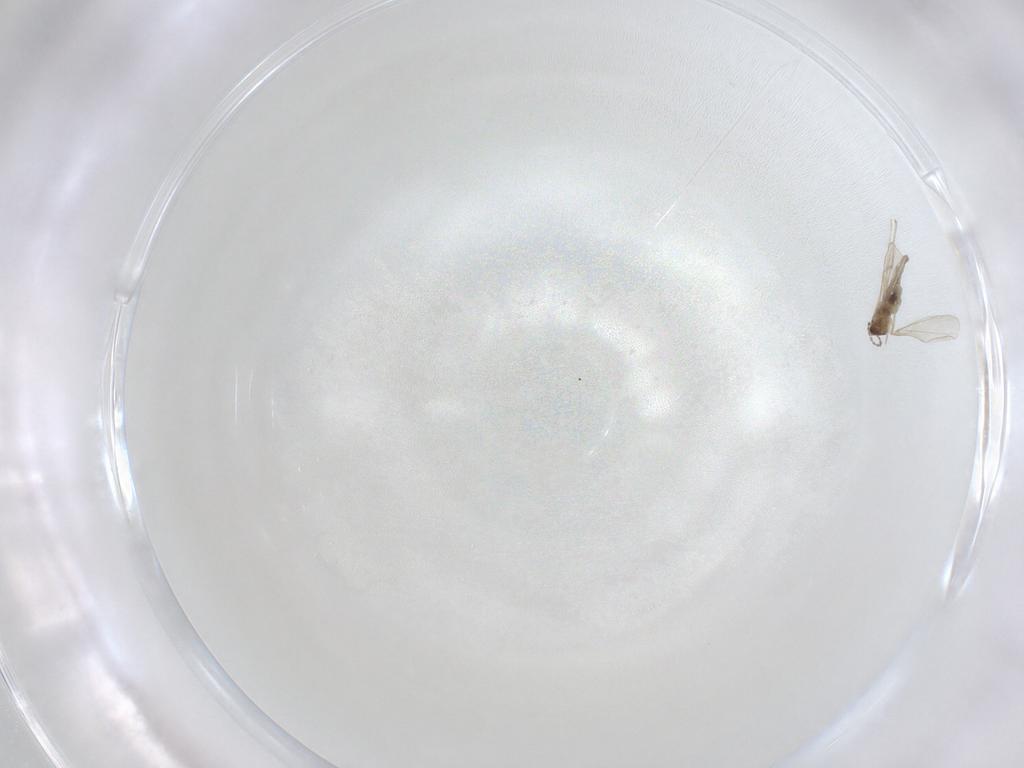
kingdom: Animalia
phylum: Arthropoda
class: Insecta
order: Diptera
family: Cecidomyiidae
